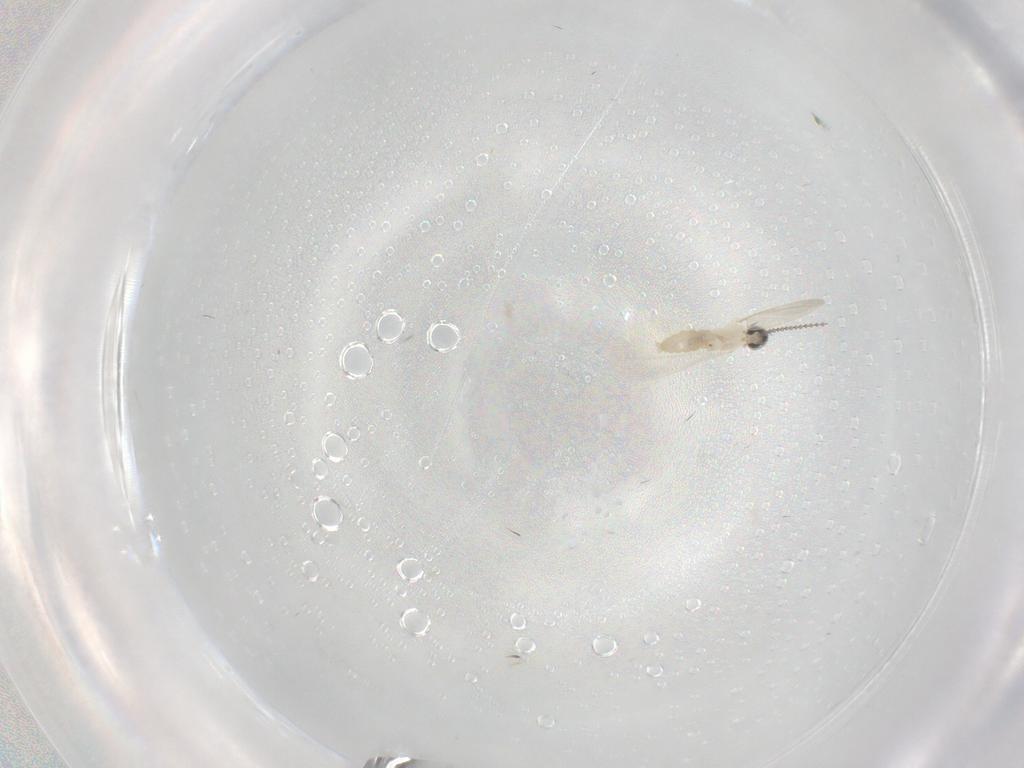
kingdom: Animalia
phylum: Arthropoda
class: Insecta
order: Diptera
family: Cecidomyiidae
